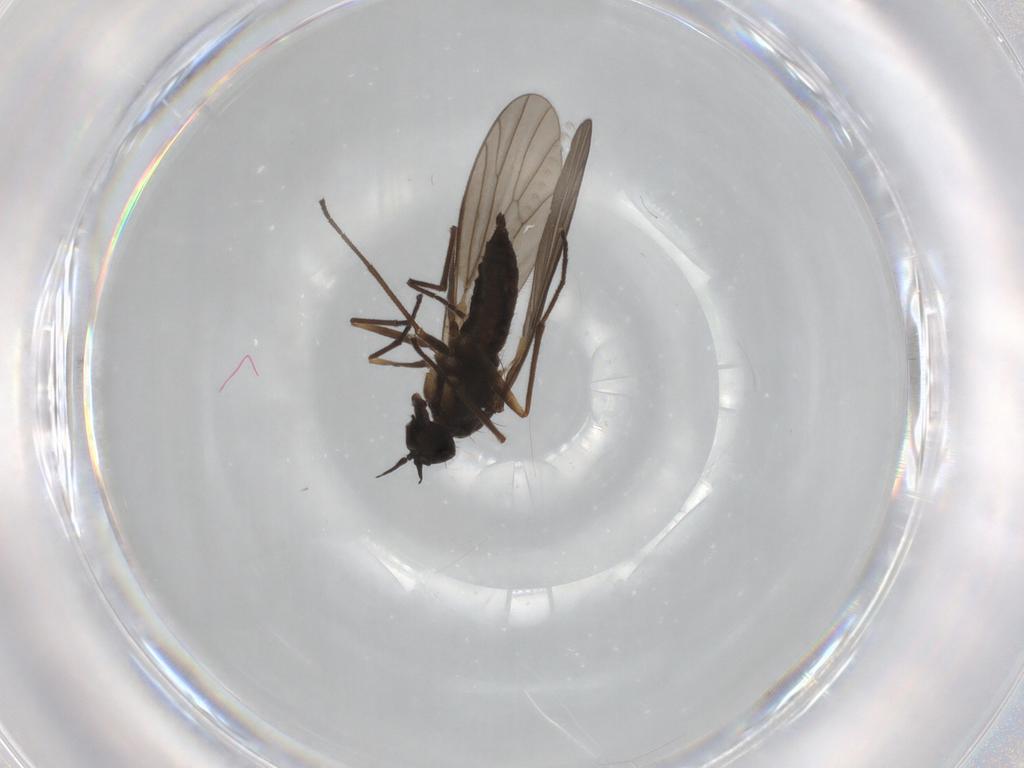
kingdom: Animalia
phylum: Arthropoda
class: Insecta
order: Diptera
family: Empididae
